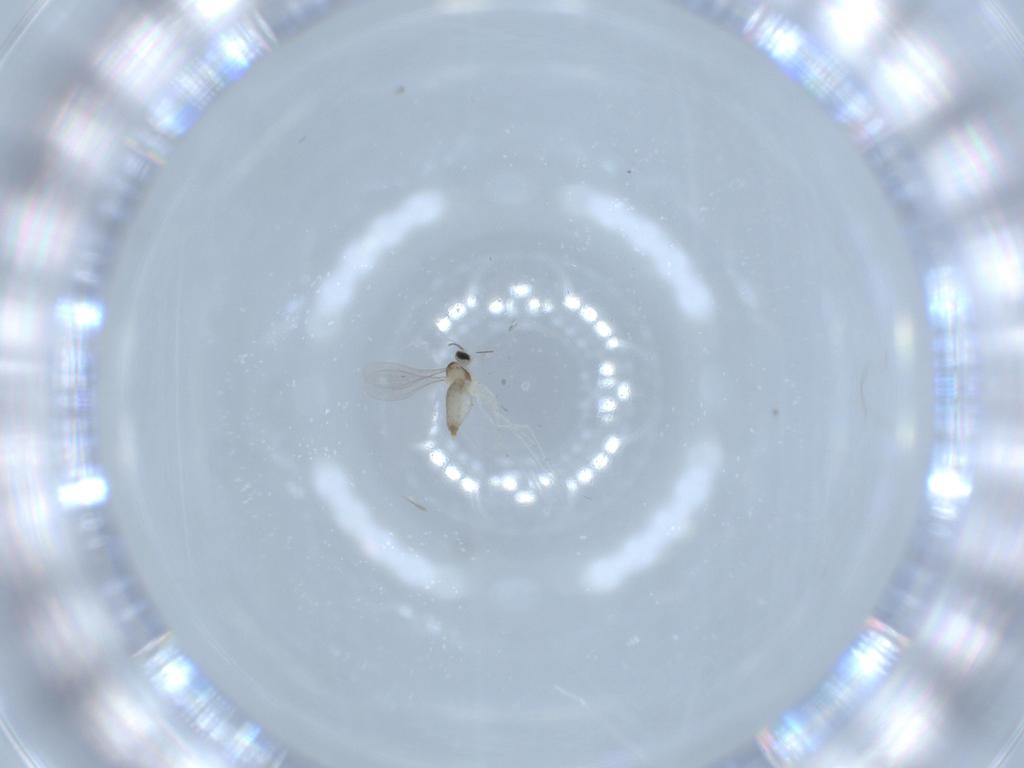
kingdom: Animalia
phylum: Arthropoda
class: Insecta
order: Diptera
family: Cecidomyiidae
